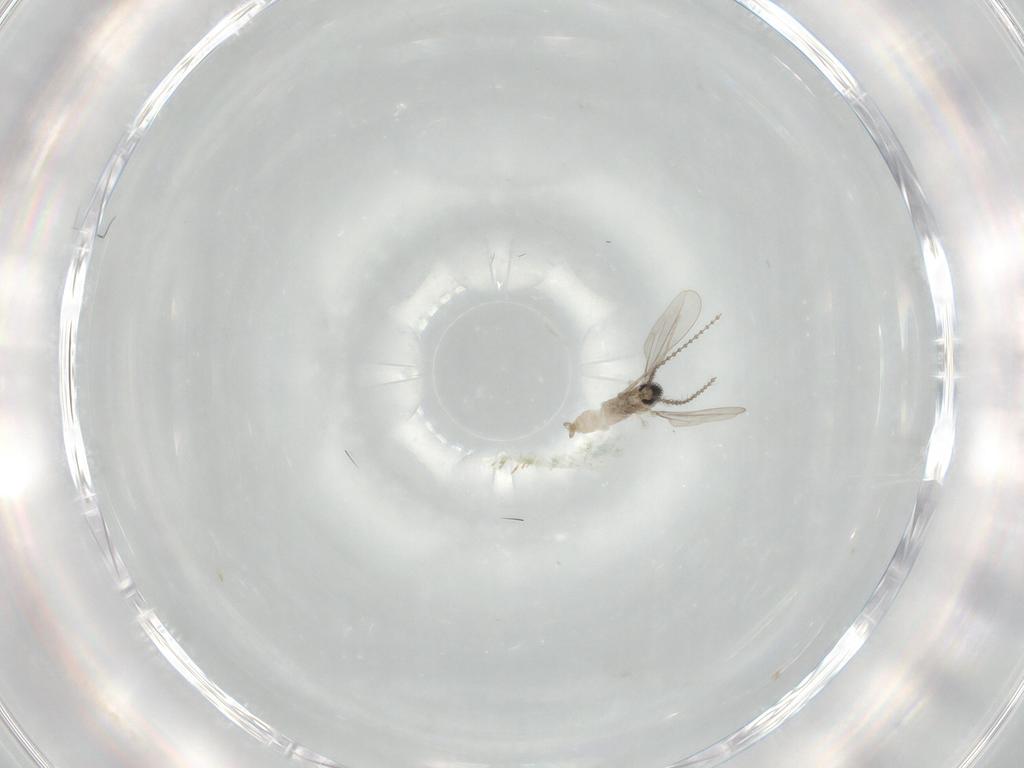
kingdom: Animalia
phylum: Arthropoda
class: Insecta
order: Diptera
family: Cecidomyiidae
